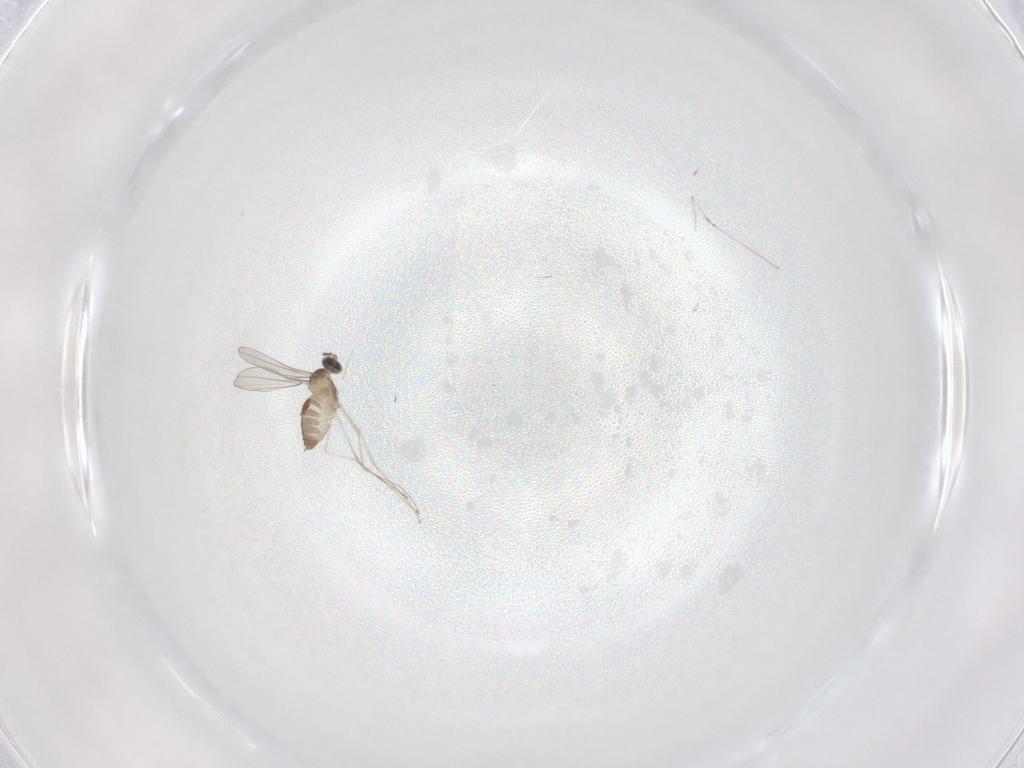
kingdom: Animalia
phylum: Arthropoda
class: Insecta
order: Diptera
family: Cecidomyiidae
